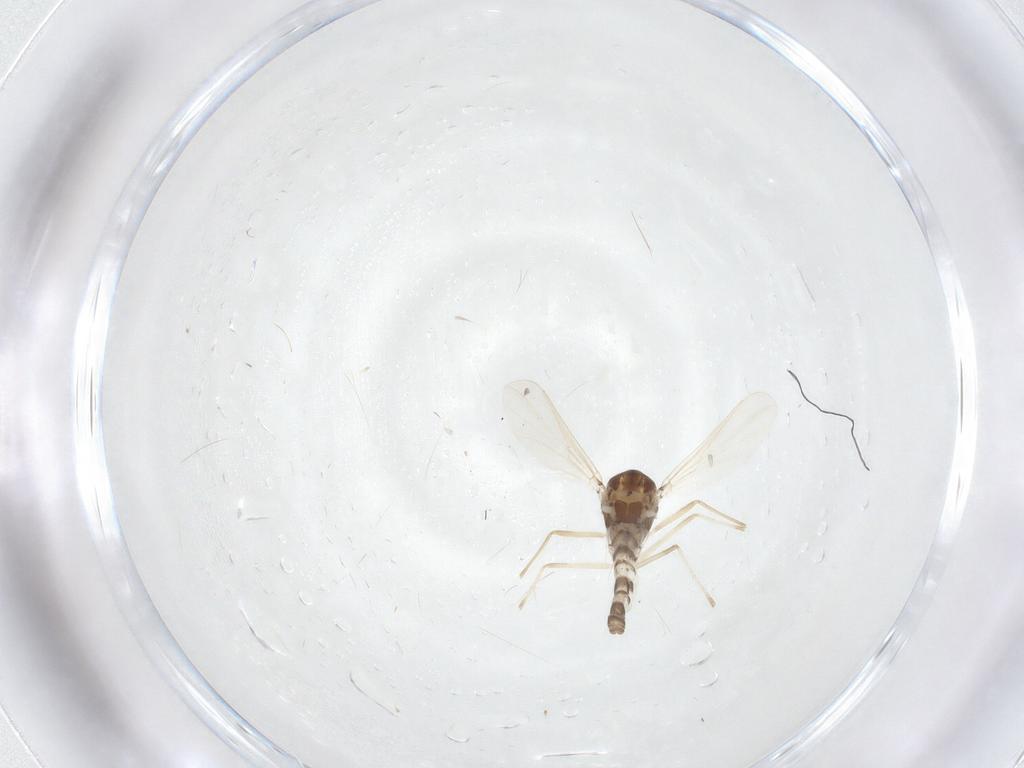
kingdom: Animalia
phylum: Arthropoda
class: Insecta
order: Diptera
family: Chironomidae
